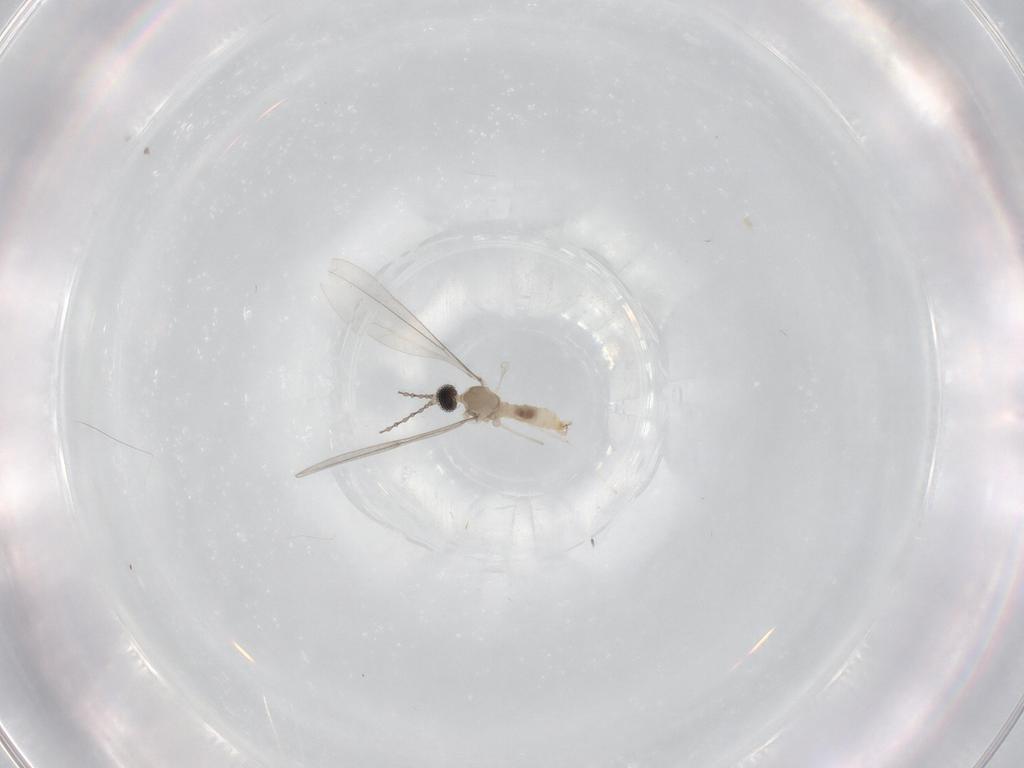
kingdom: Animalia
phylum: Arthropoda
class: Insecta
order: Diptera
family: Cecidomyiidae
